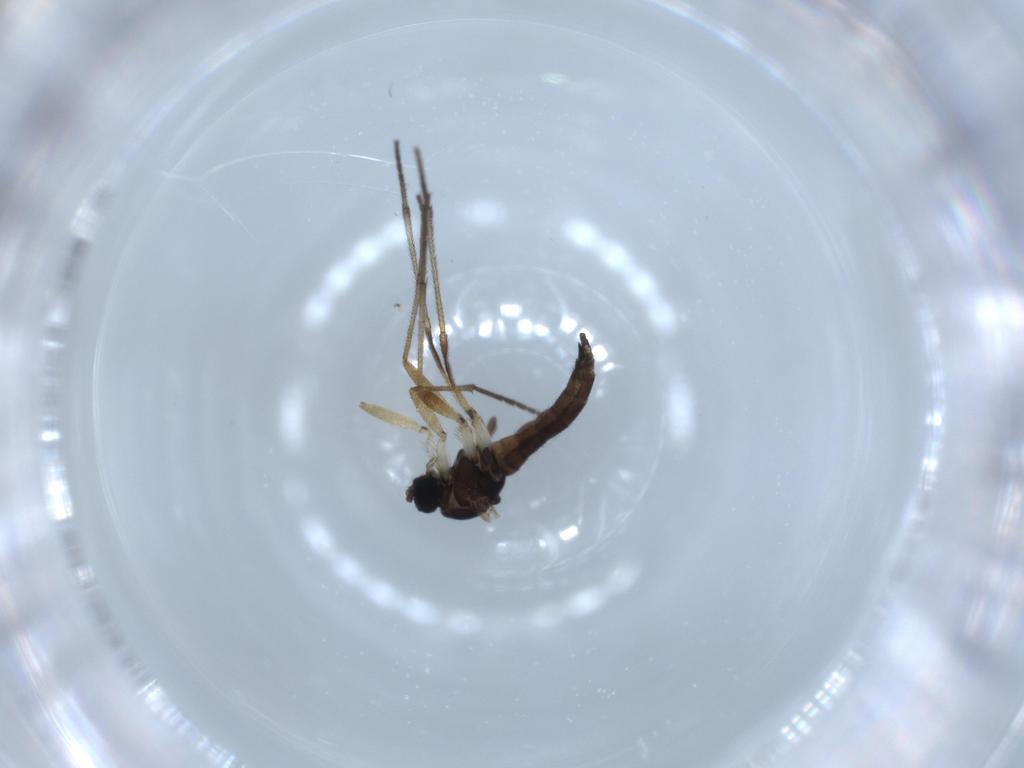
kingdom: Animalia
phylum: Arthropoda
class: Insecta
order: Diptera
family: Sciaridae
